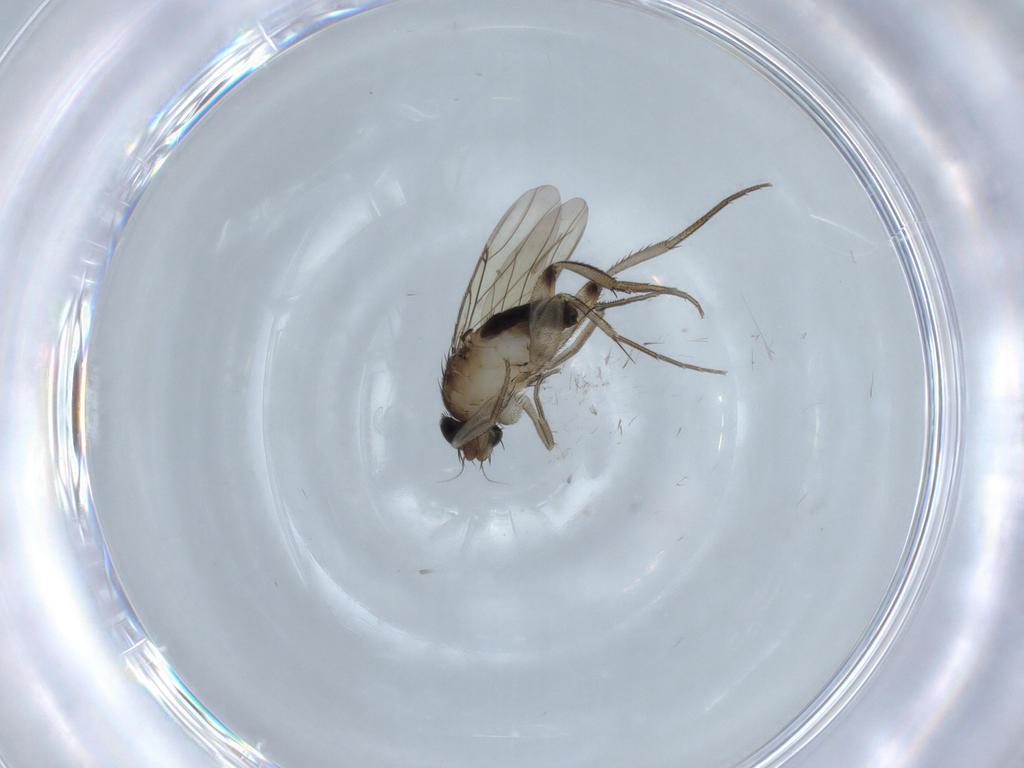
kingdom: Animalia
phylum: Arthropoda
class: Insecta
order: Diptera
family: Phoridae
